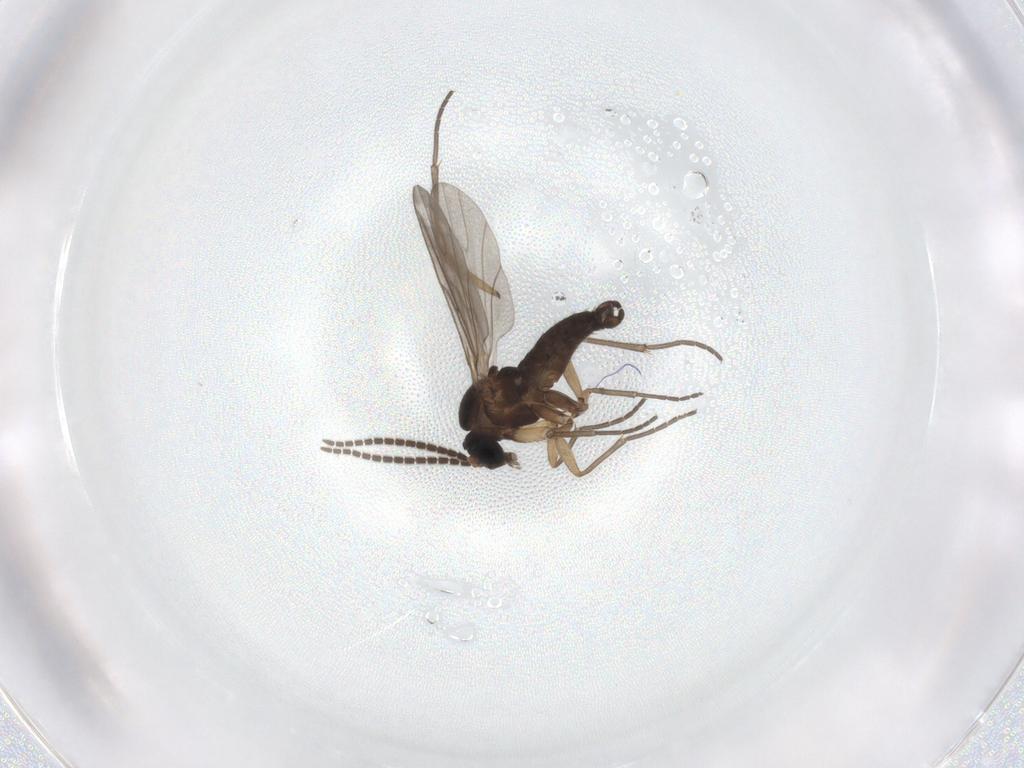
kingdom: Animalia
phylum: Arthropoda
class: Insecta
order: Diptera
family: Sciaridae
